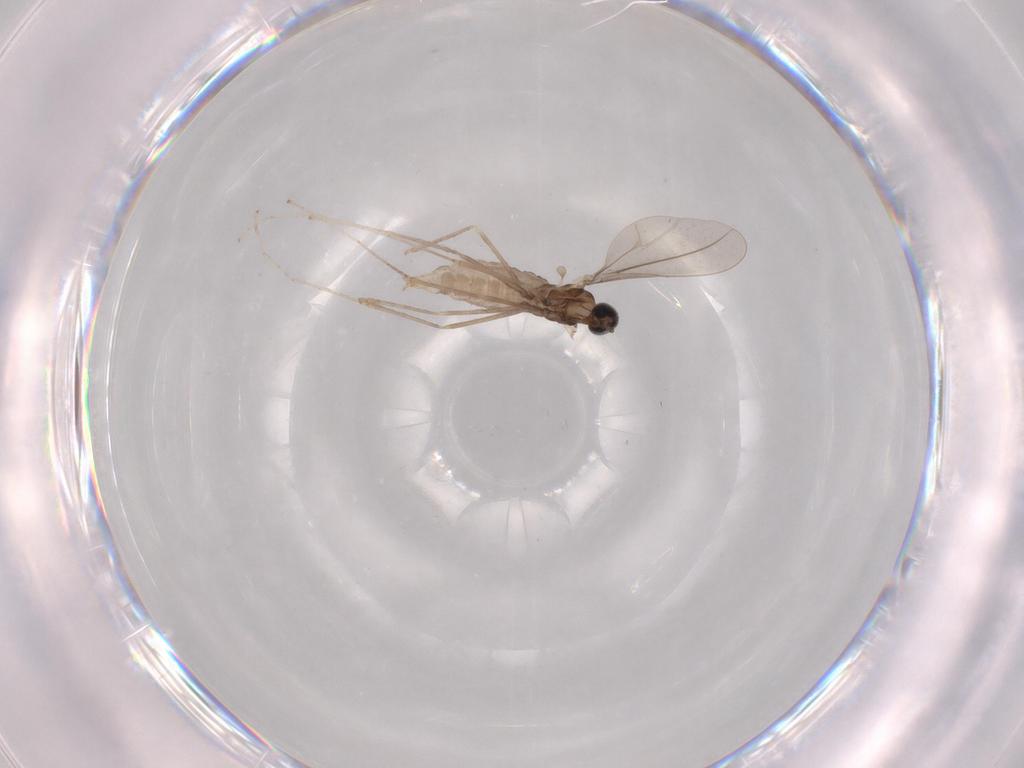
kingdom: Animalia
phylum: Arthropoda
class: Insecta
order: Diptera
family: Cecidomyiidae
